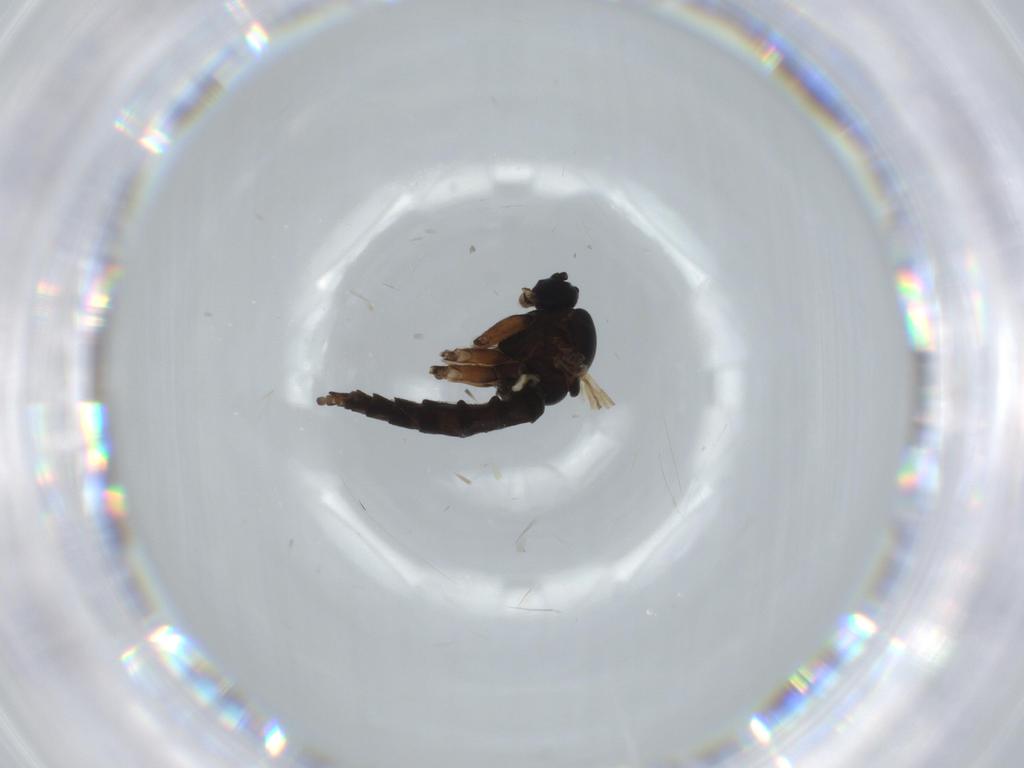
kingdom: Animalia
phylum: Arthropoda
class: Insecta
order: Diptera
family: Sciaridae
